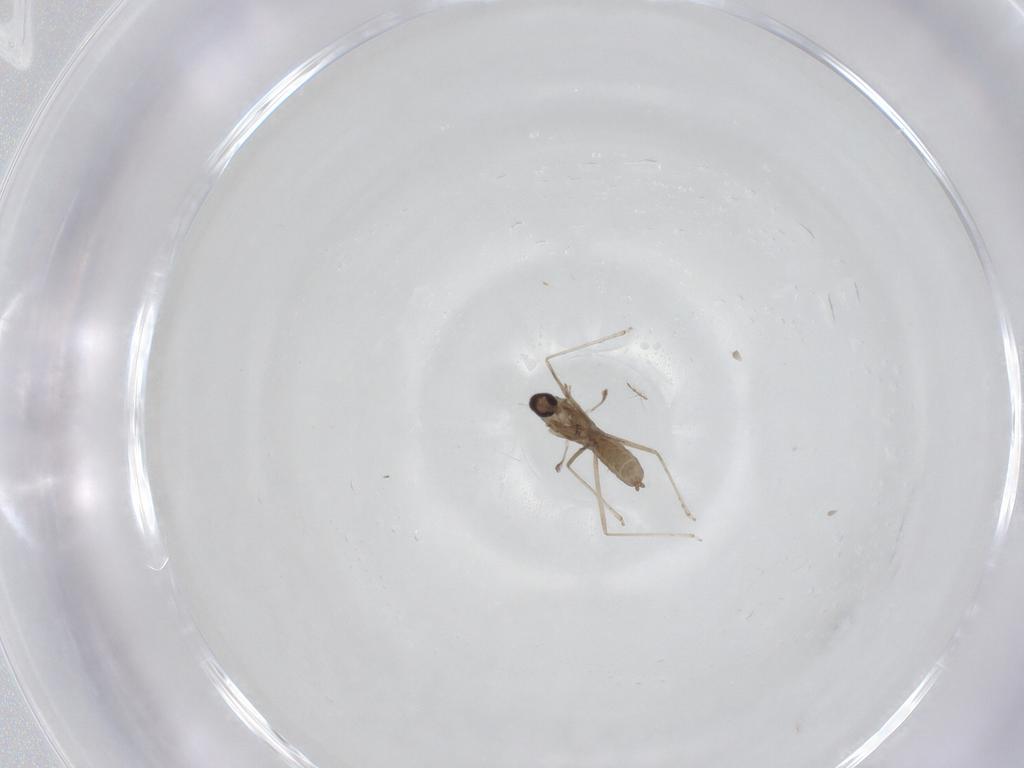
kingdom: Animalia
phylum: Arthropoda
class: Insecta
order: Diptera
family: Cecidomyiidae
